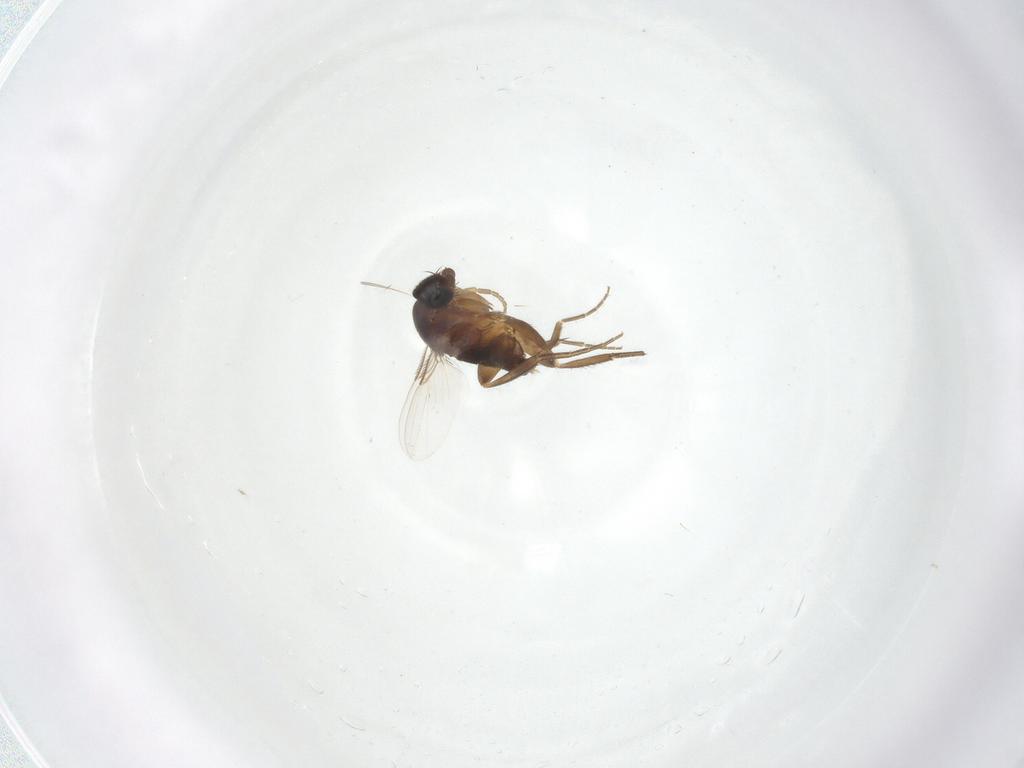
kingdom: Animalia
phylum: Arthropoda
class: Insecta
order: Diptera
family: Phoridae
